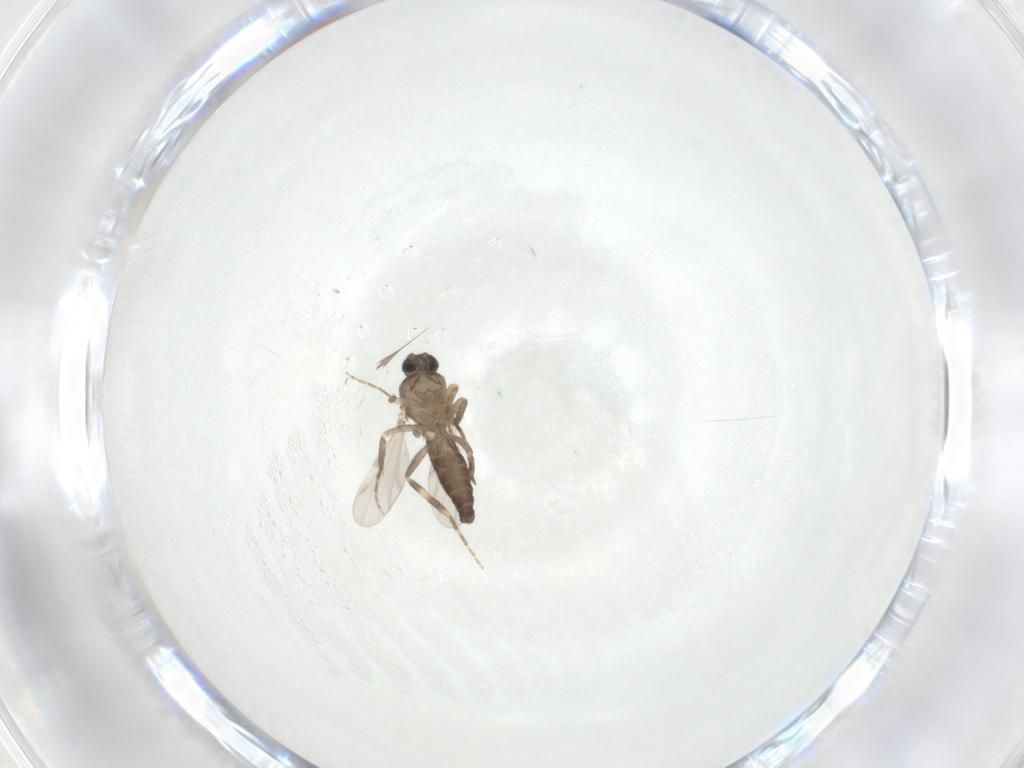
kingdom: Animalia
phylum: Arthropoda
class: Insecta
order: Diptera
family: Ceratopogonidae
